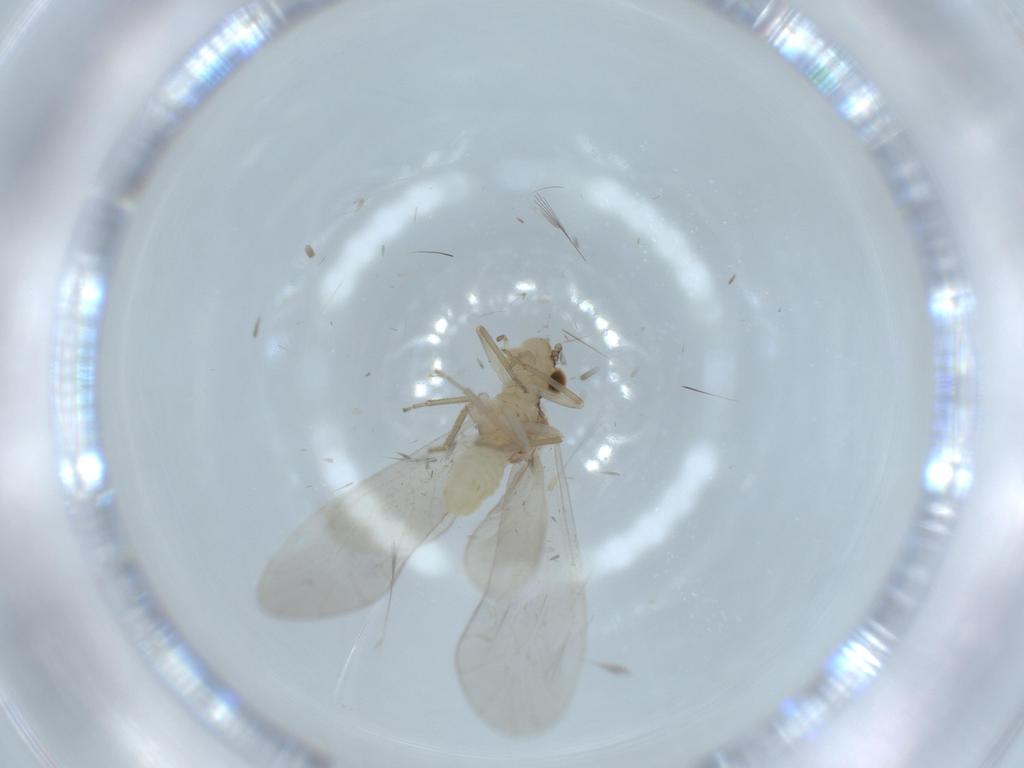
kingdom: Animalia
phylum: Arthropoda
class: Insecta
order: Psocodea
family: Caeciliusidae
